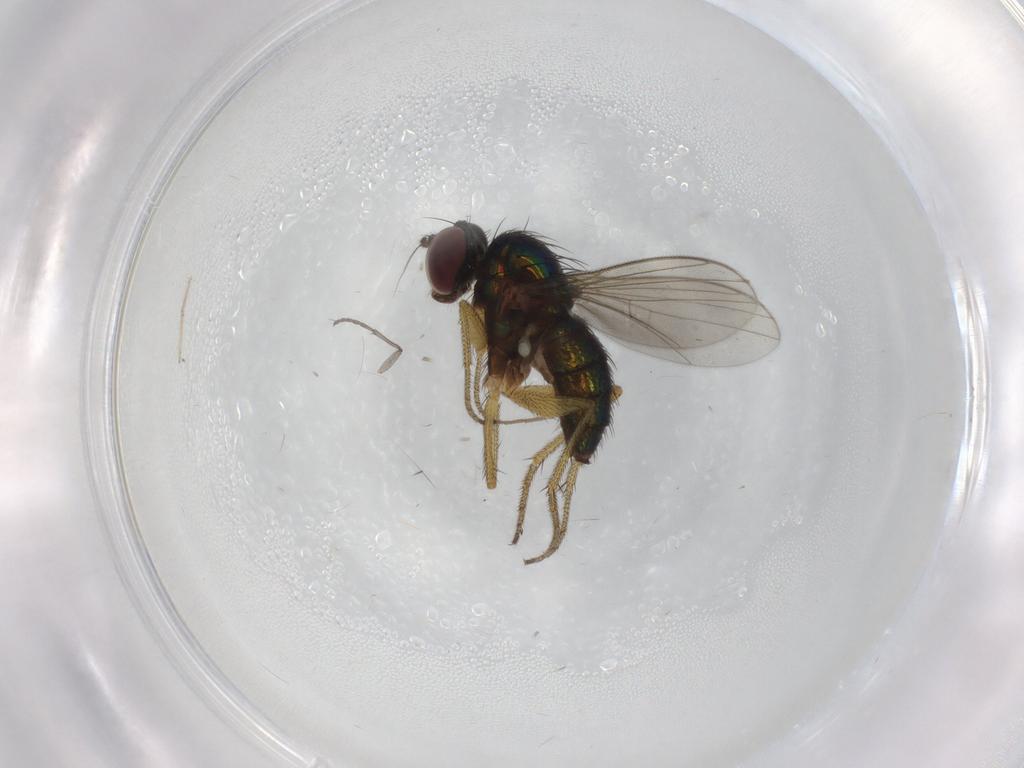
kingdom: Animalia
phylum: Arthropoda
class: Insecta
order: Diptera
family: Dolichopodidae
